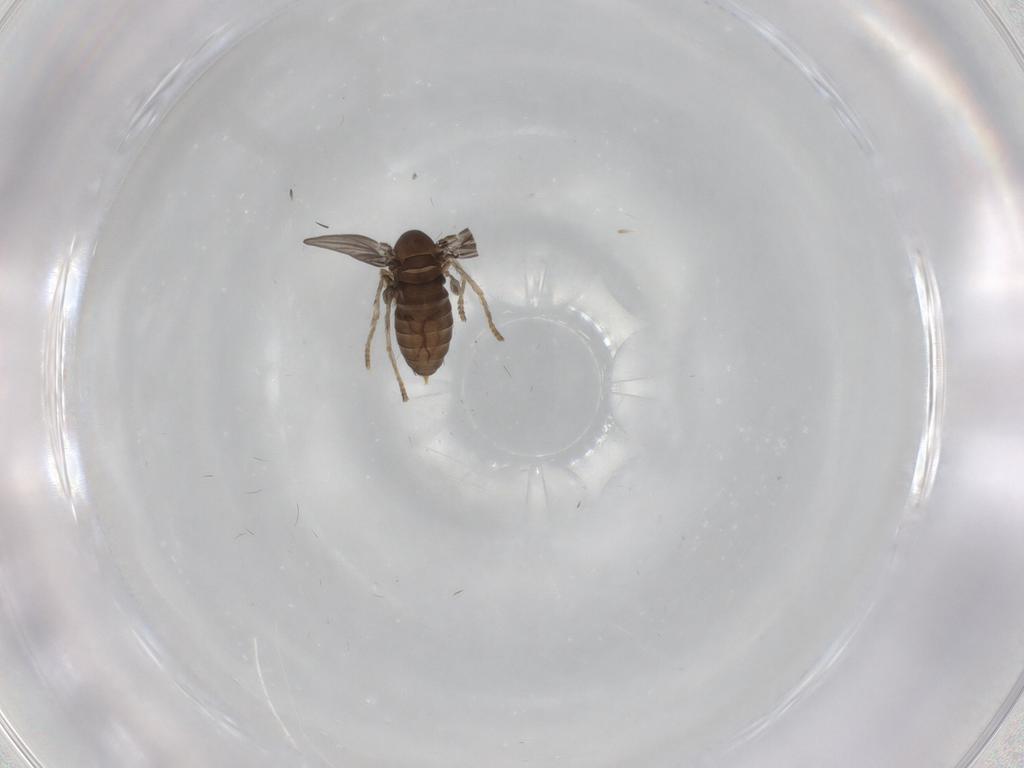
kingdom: Animalia
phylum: Arthropoda
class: Insecta
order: Diptera
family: Psychodidae
